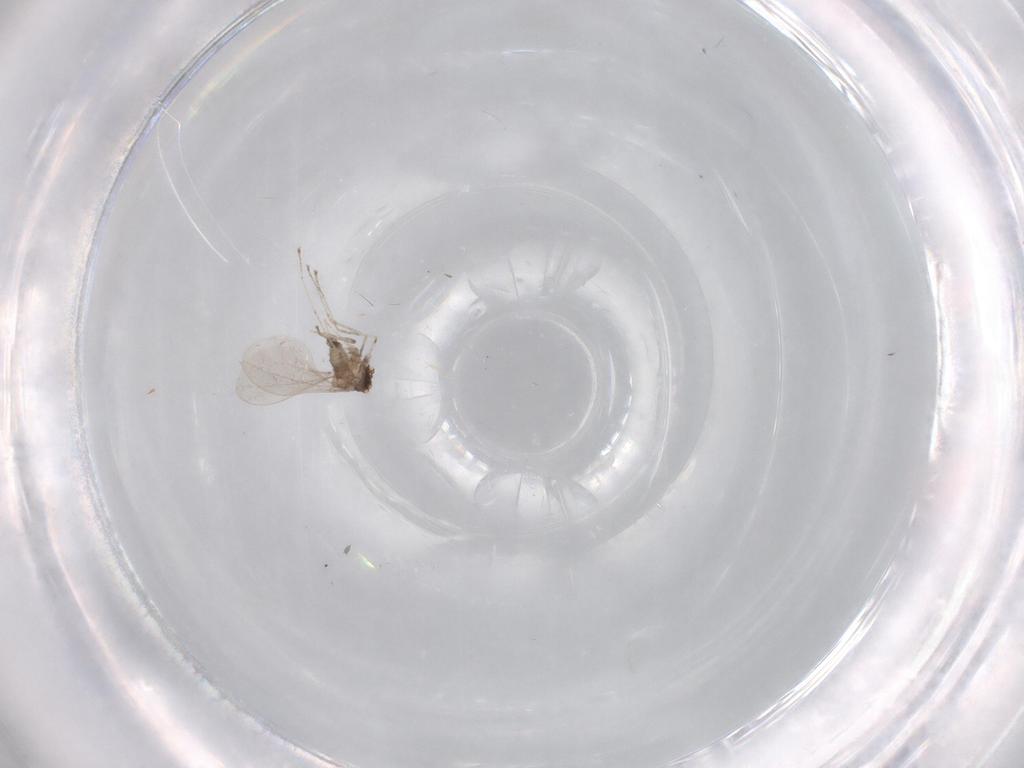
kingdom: Animalia
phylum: Arthropoda
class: Insecta
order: Diptera
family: Cecidomyiidae
